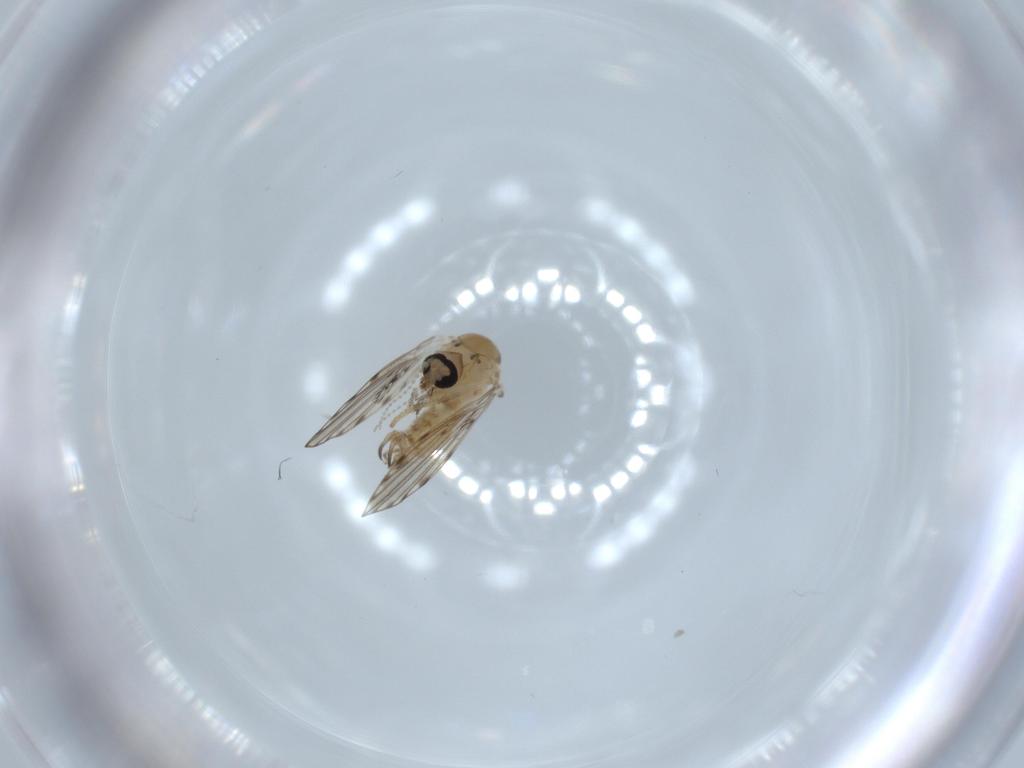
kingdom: Animalia
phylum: Arthropoda
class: Insecta
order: Diptera
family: Psychodidae
